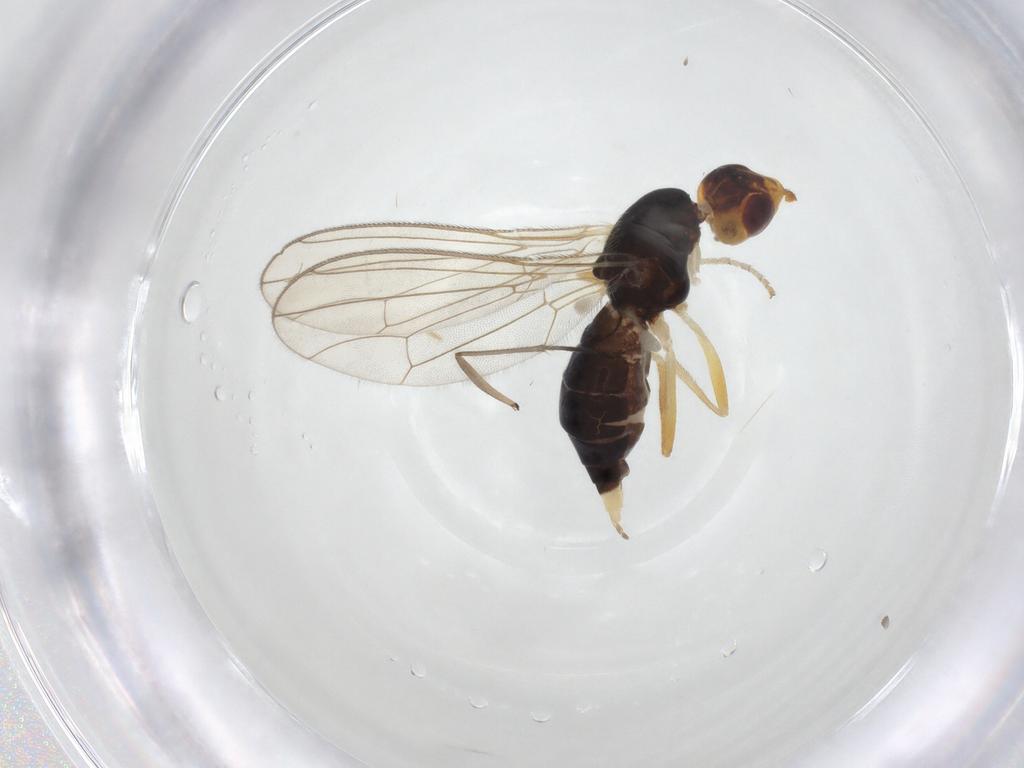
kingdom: Animalia
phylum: Arthropoda
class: Insecta
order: Diptera
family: Sciaridae
